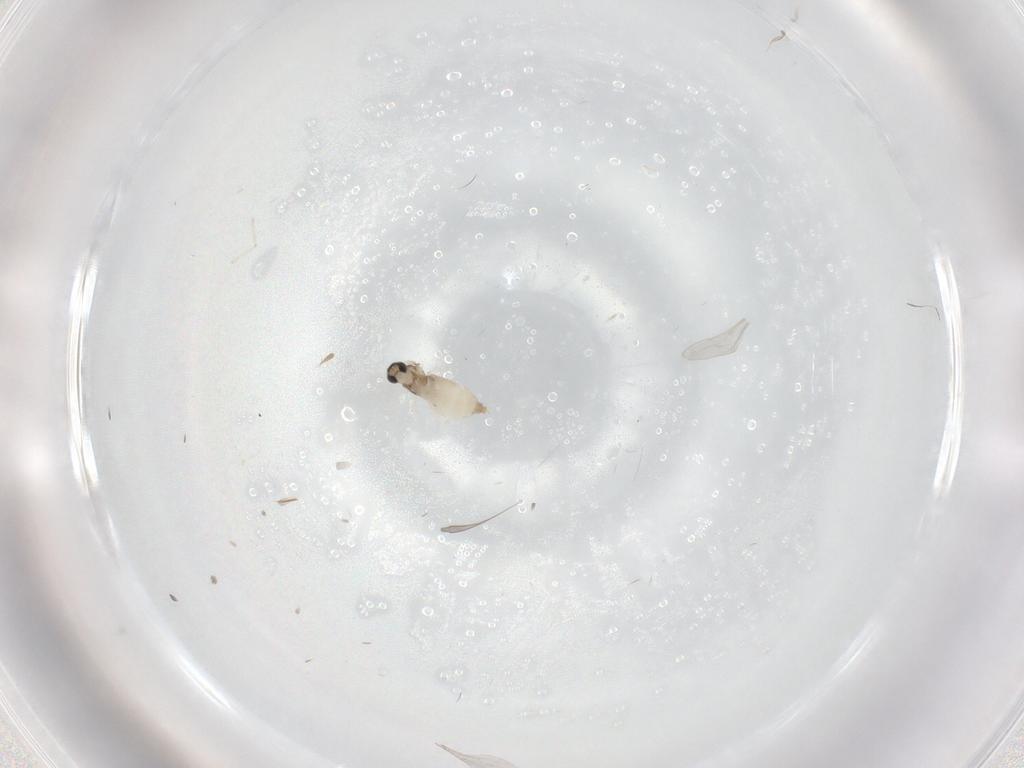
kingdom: Animalia
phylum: Arthropoda
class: Insecta
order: Diptera
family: Cecidomyiidae
